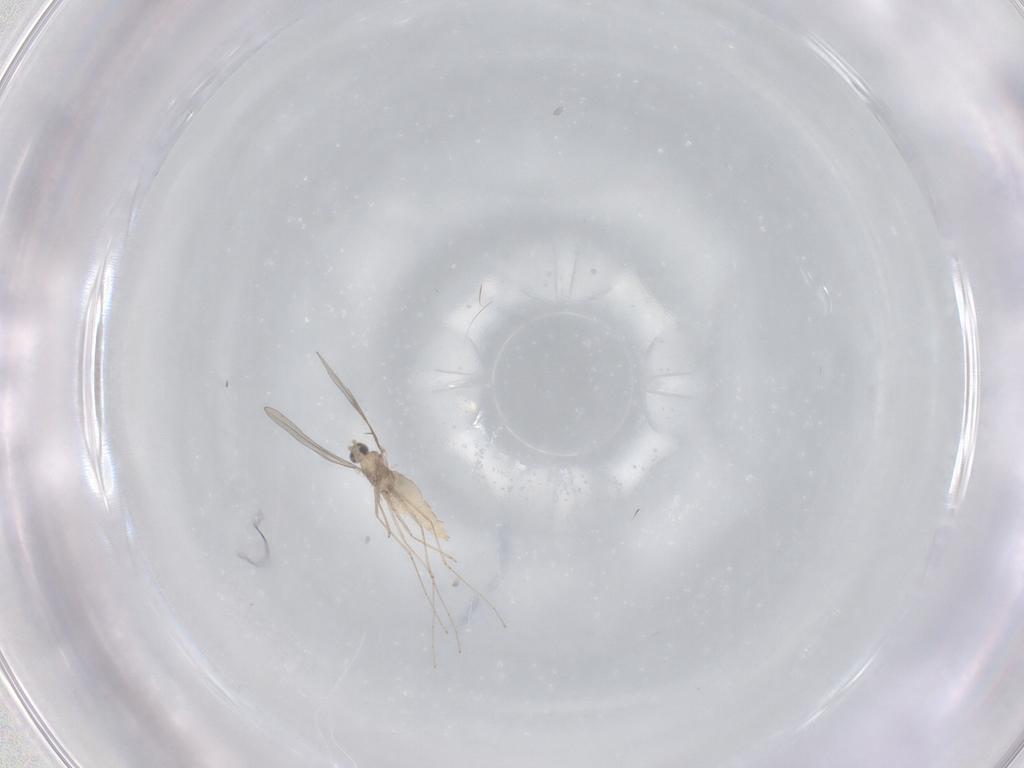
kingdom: Animalia
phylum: Arthropoda
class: Insecta
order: Diptera
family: Cecidomyiidae
